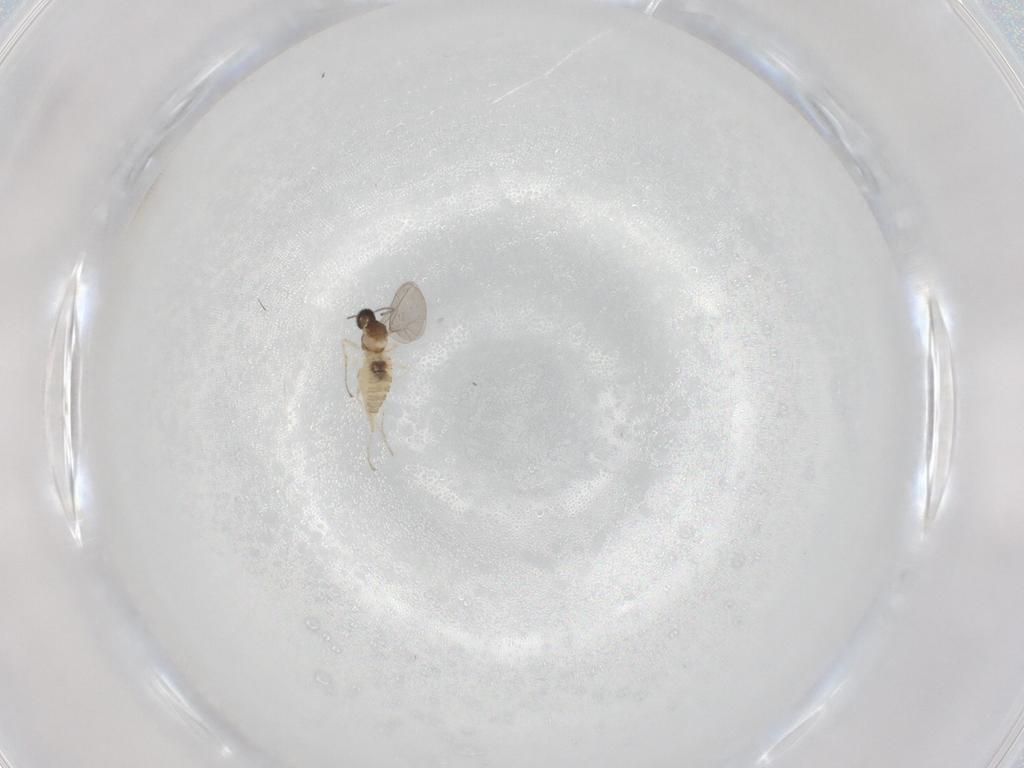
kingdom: Animalia
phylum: Arthropoda
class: Insecta
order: Diptera
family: Cecidomyiidae
